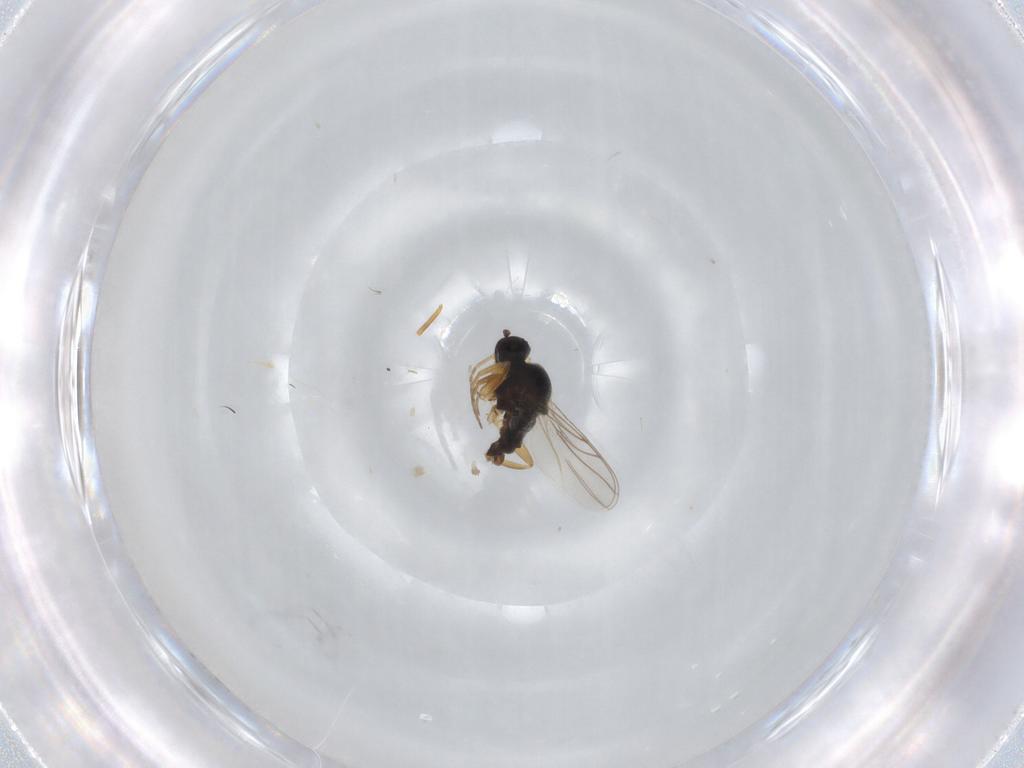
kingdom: Animalia
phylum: Arthropoda
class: Insecta
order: Diptera
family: Hybotidae
